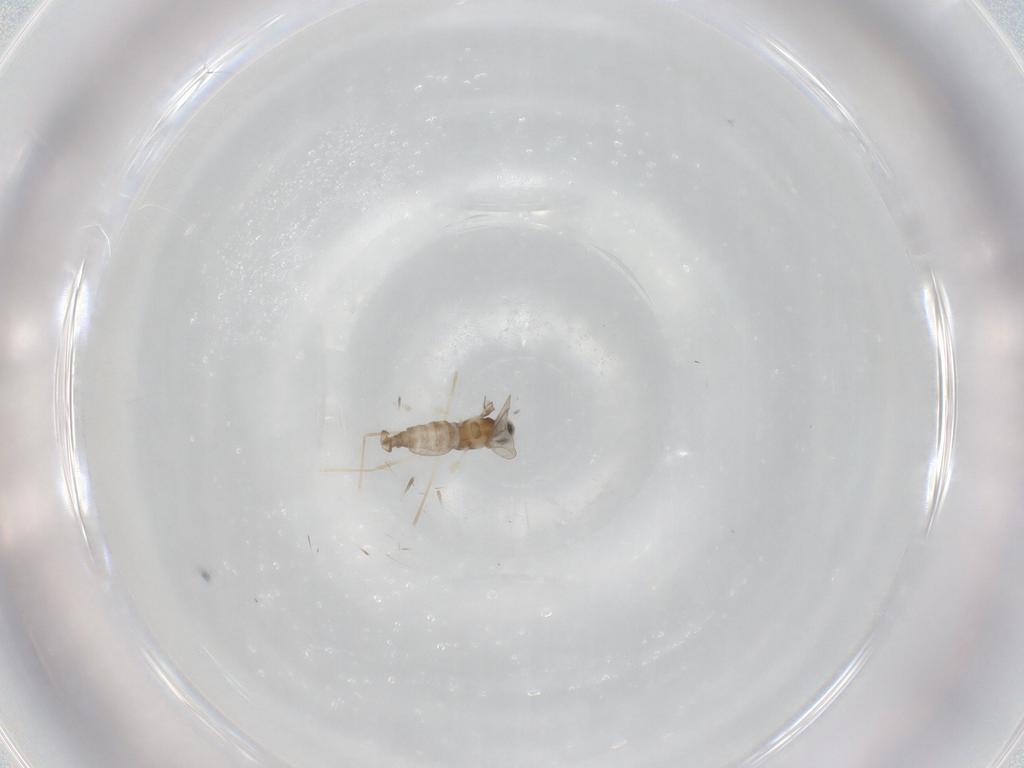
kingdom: Animalia
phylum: Arthropoda
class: Insecta
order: Diptera
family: Cecidomyiidae
